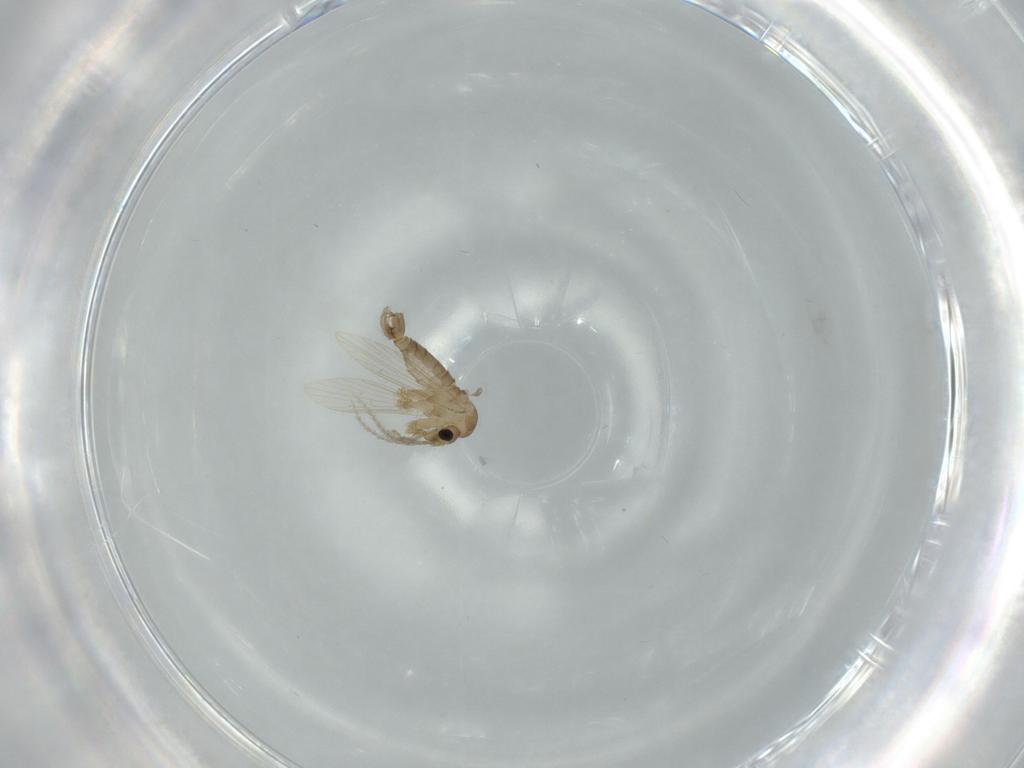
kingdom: Animalia
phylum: Arthropoda
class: Insecta
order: Diptera
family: Psychodidae
